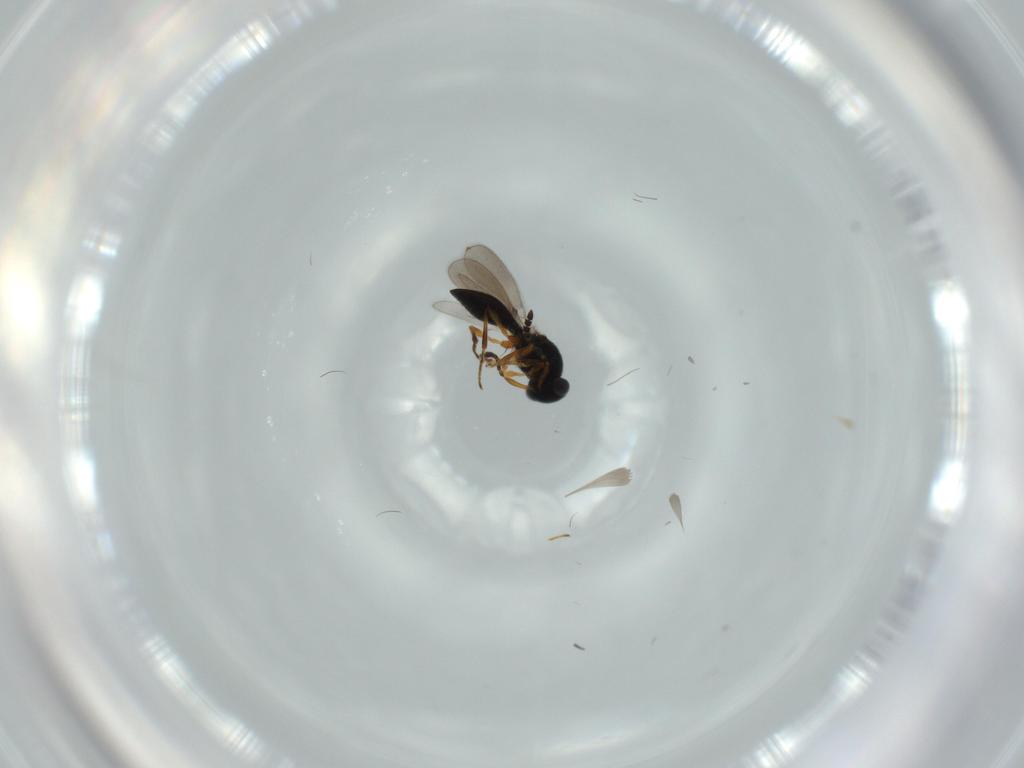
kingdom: Animalia
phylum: Arthropoda
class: Insecta
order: Hymenoptera
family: Platygastridae
